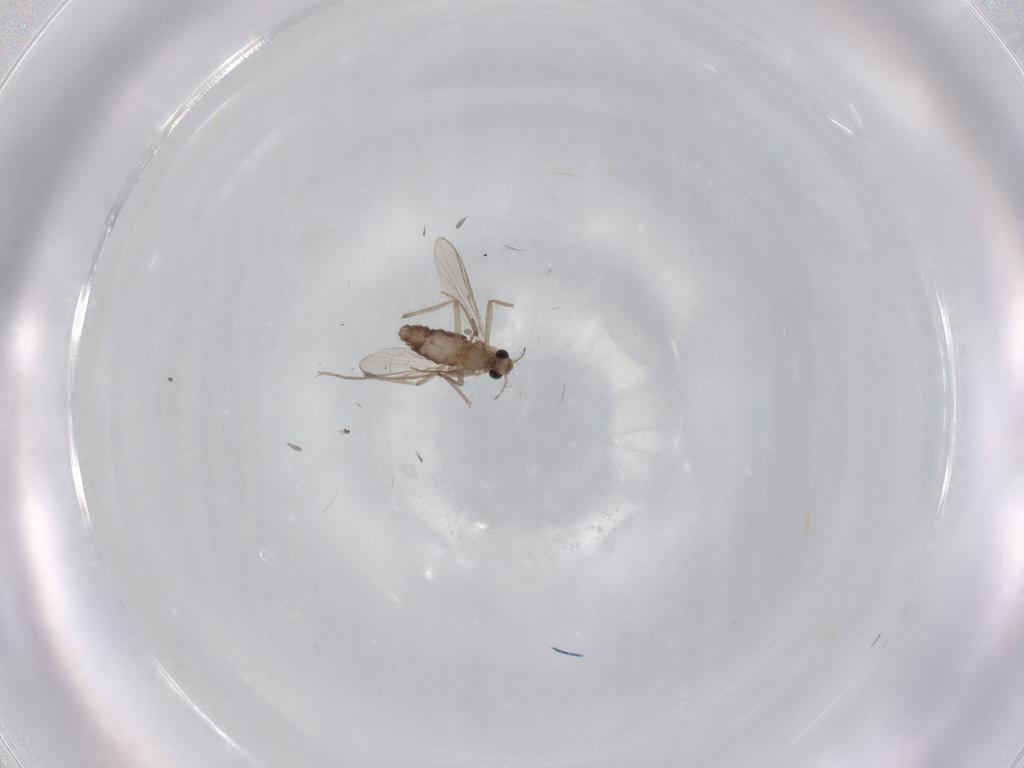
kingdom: Animalia
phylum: Arthropoda
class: Insecta
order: Diptera
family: Chironomidae
